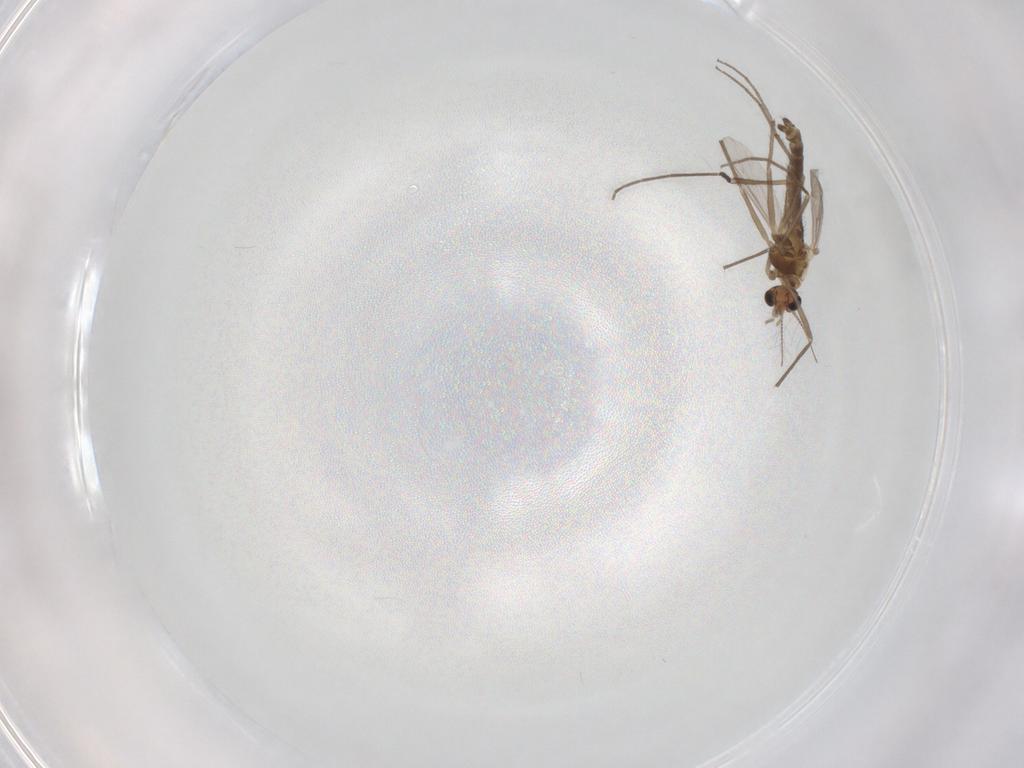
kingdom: Animalia
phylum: Arthropoda
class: Insecta
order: Diptera
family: Chironomidae
